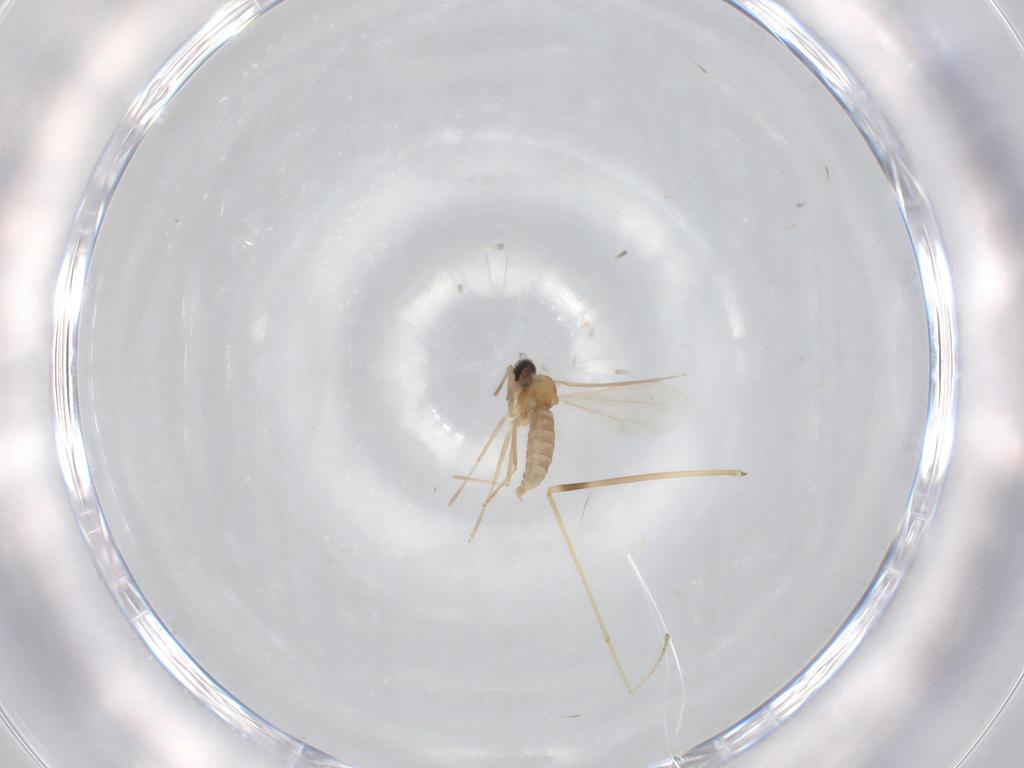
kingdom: Animalia
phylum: Arthropoda
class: Insecta
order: Diptera
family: Cecidomyiidae
